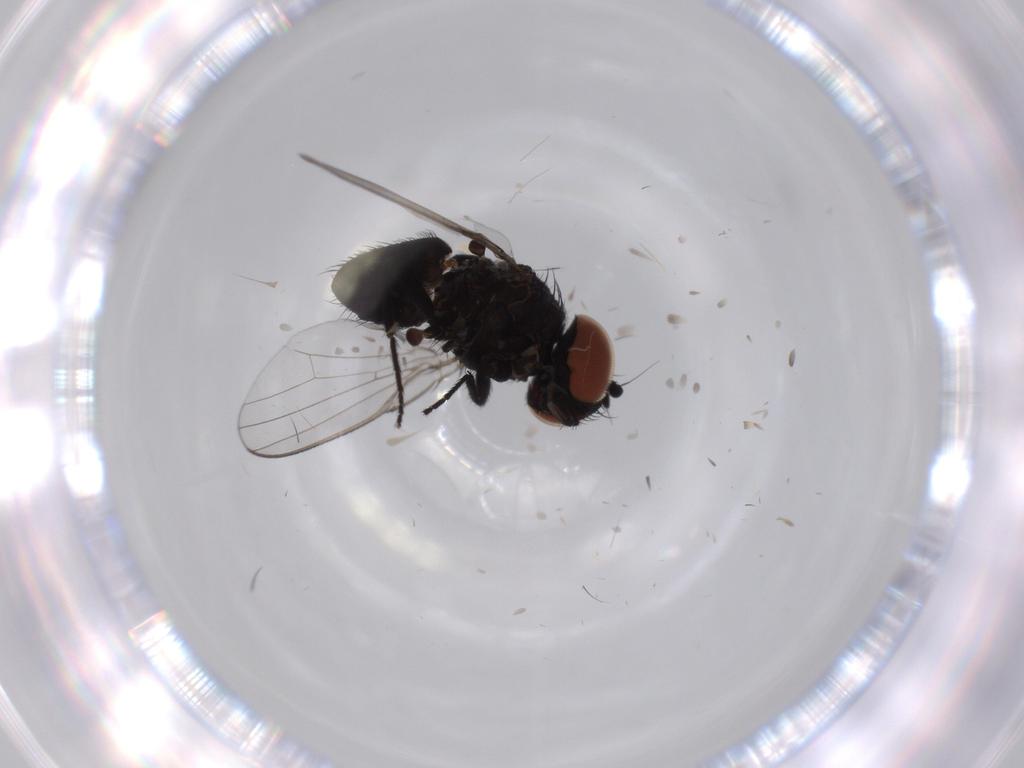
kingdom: Animalia
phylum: Arthropoda
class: Insecta
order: Diptera
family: Milichiidae
